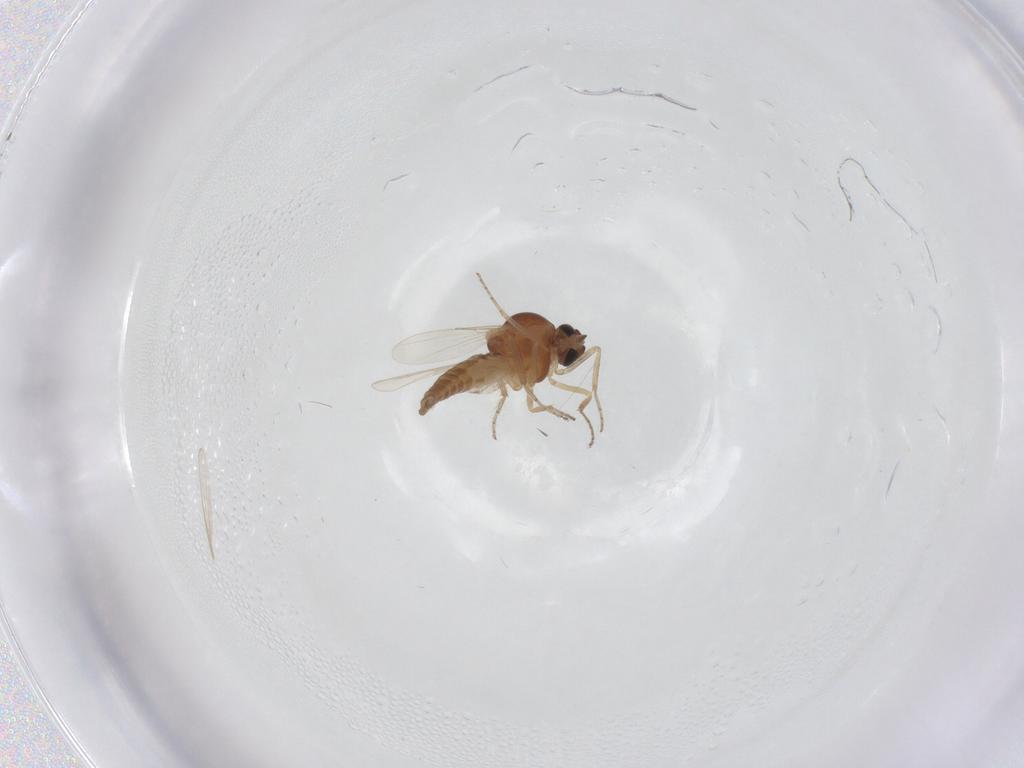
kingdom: Animalia
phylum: Arthropoda
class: Insecta
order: Diptera
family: Ceratopogonidae
